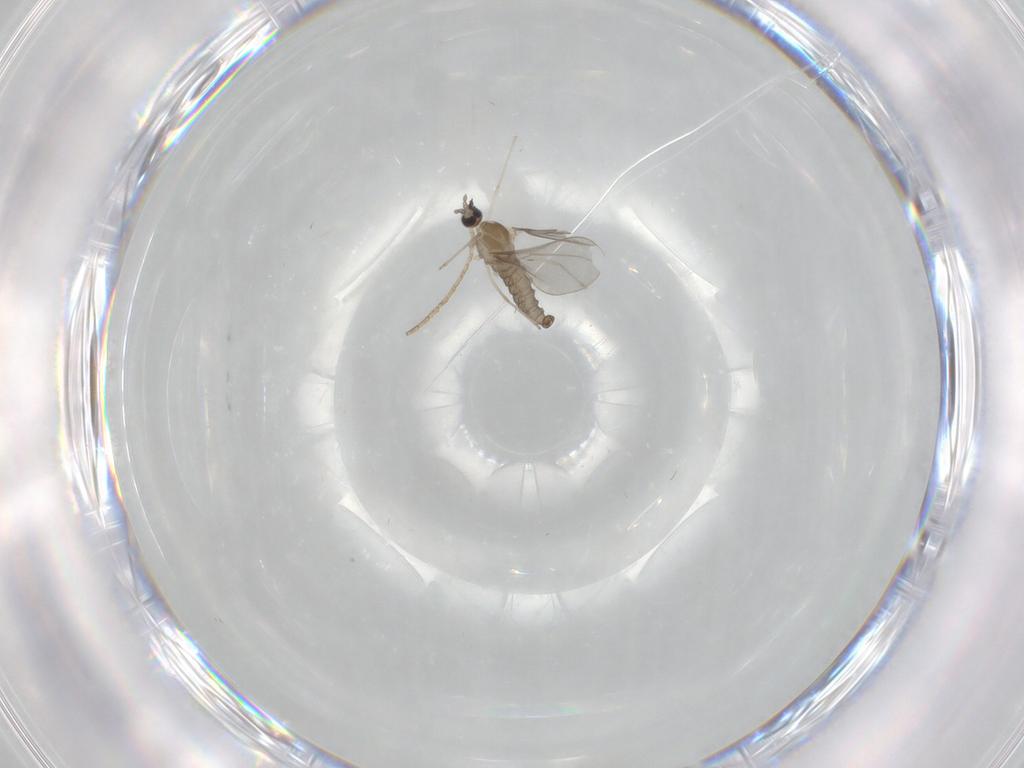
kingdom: Animalia
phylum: Arthropoda
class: Insecta
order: Diptera
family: Cecidomyiidae
